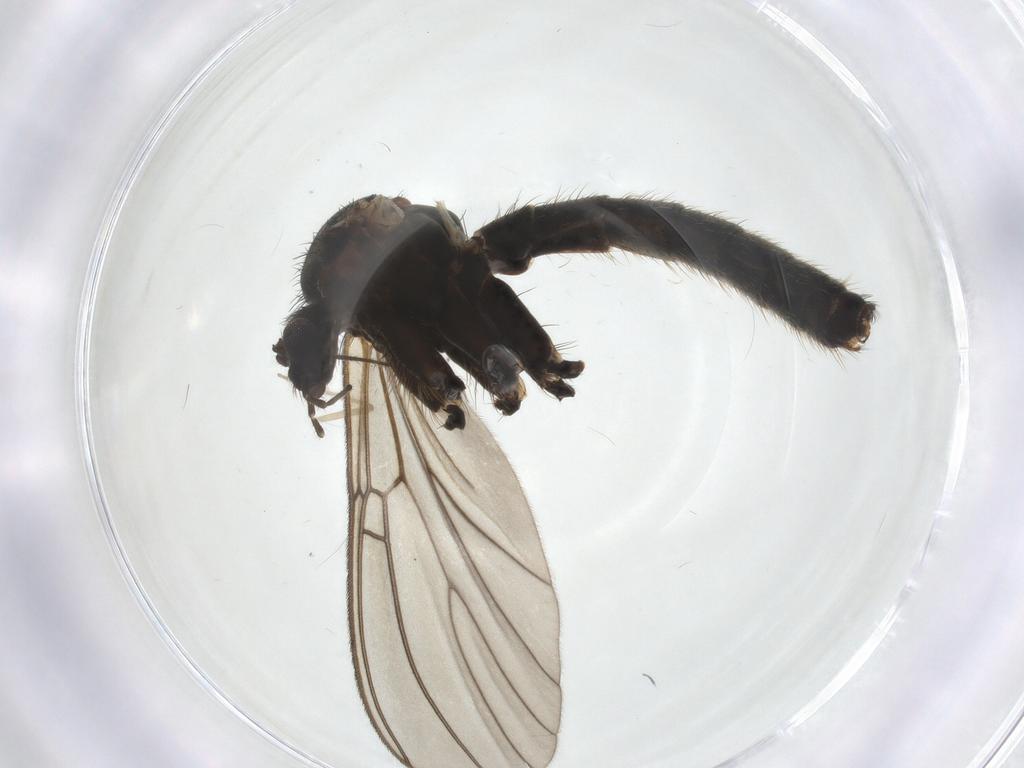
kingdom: Animalia
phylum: Arthropoda
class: Insecta
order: Diptera
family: Mycetophilidae
